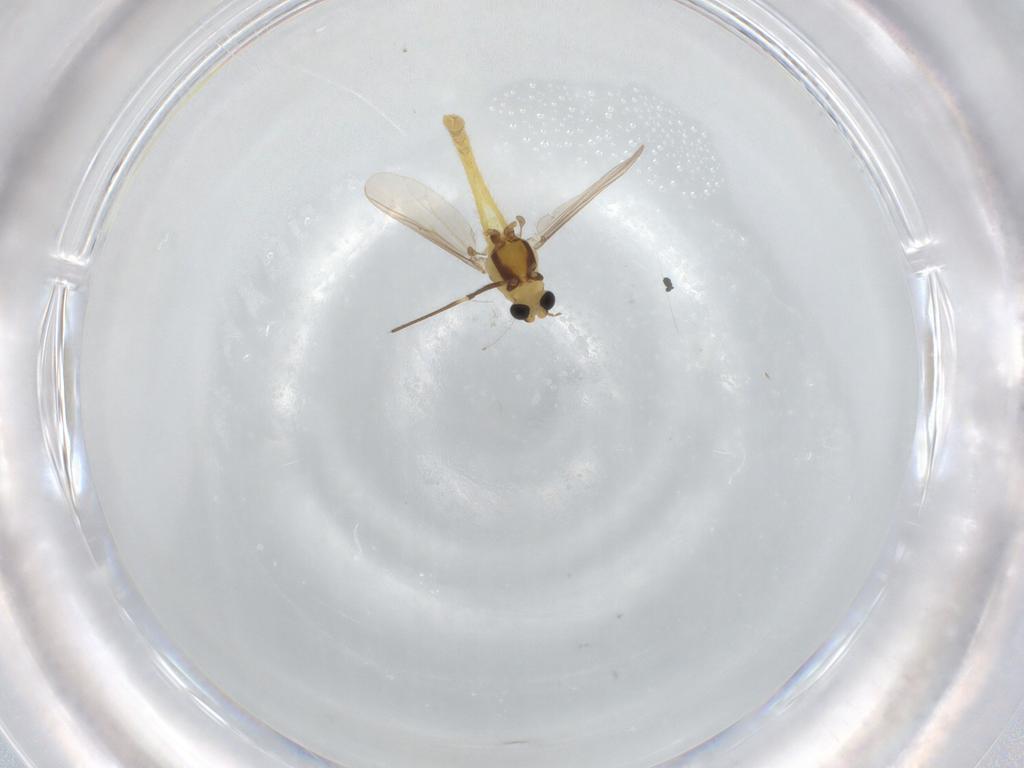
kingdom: Animalia
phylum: Arthropoda
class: Insecta
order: Diptera
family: Chironomidae
